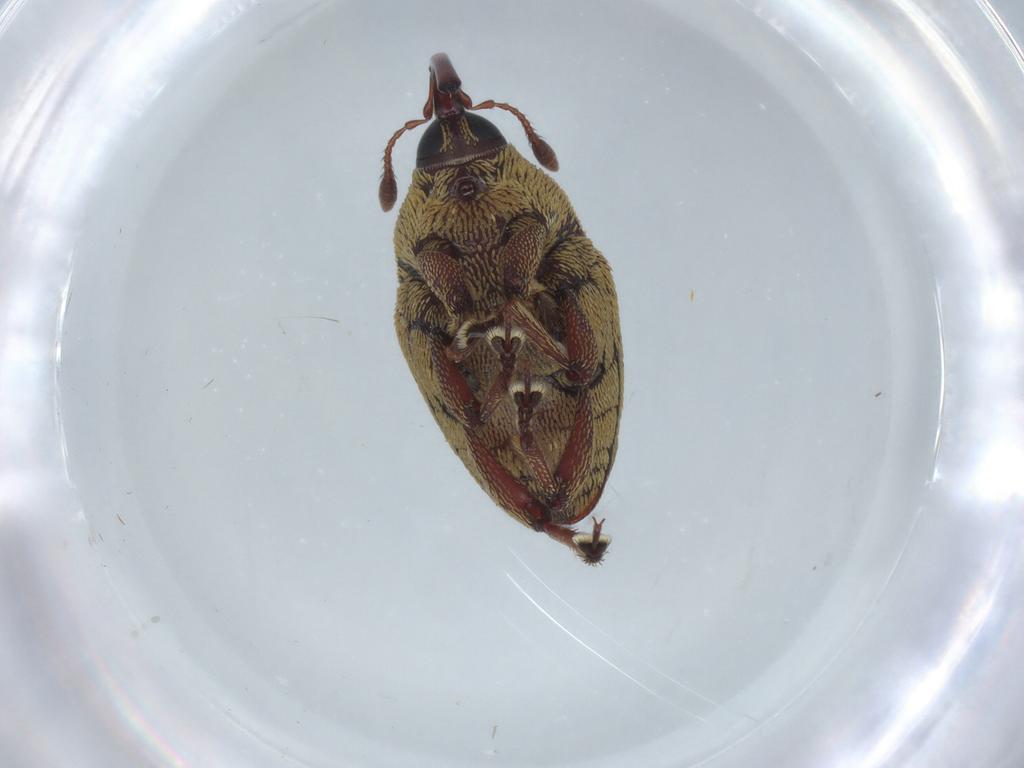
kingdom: Animalia
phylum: Arthropoda
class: Insecta
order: Coleoptera
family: Curculionidae
